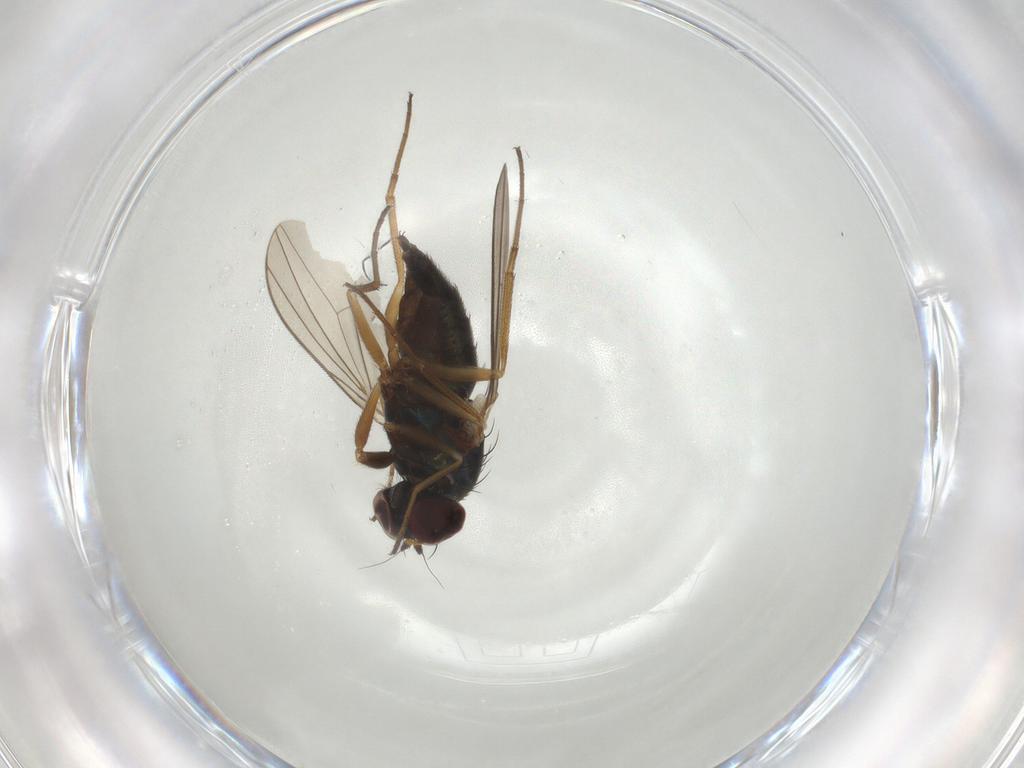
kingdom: Animalia
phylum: Arthropoda
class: Insecta
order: Diptera
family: Dolichopodidae
